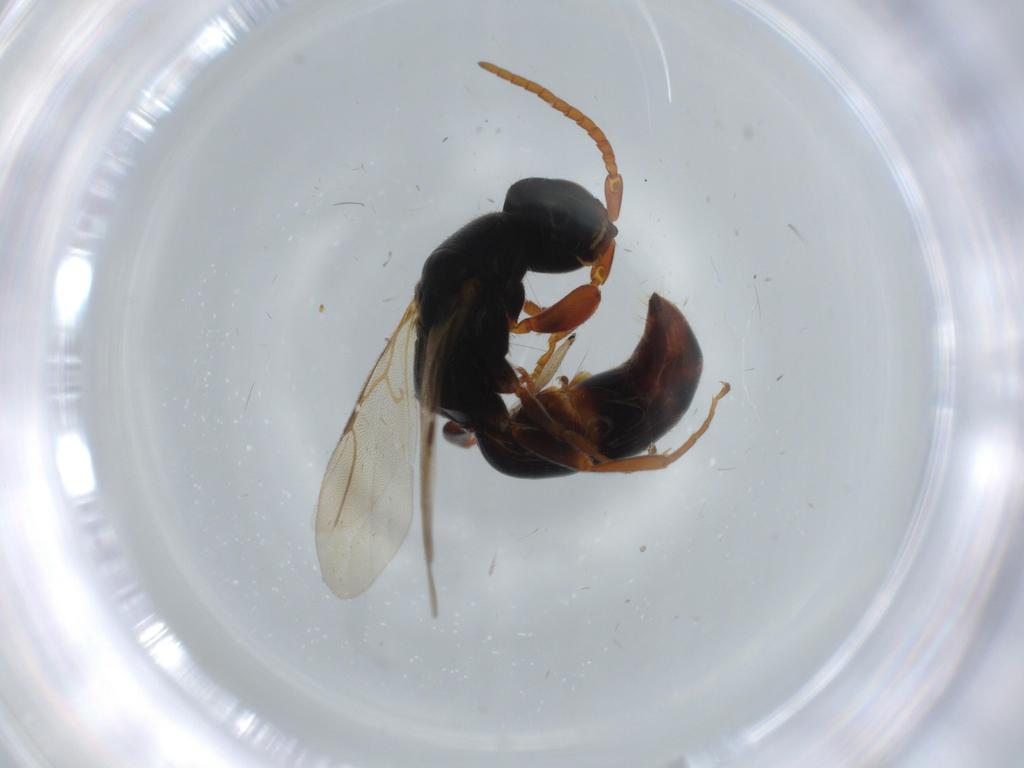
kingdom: Animalia
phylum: Arthropoda
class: Insecta
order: Hymenoptera
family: Bethylidae
